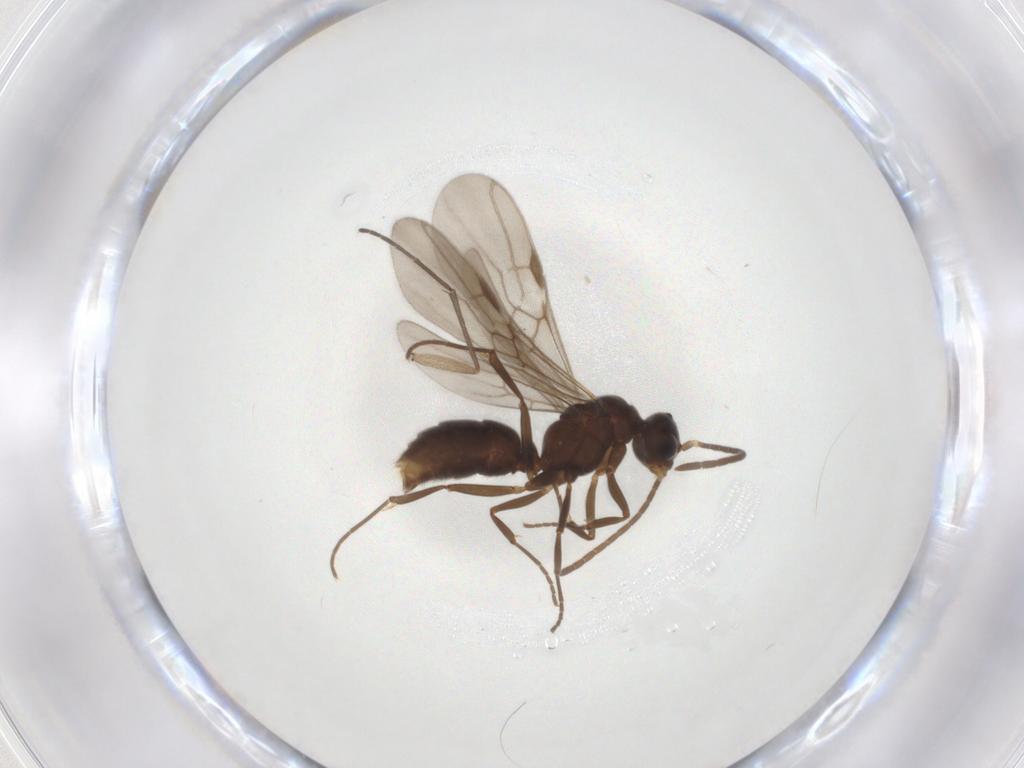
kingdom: Animalia
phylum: Arthropoda
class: Insecta
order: Hymenoptera
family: Formicidae
